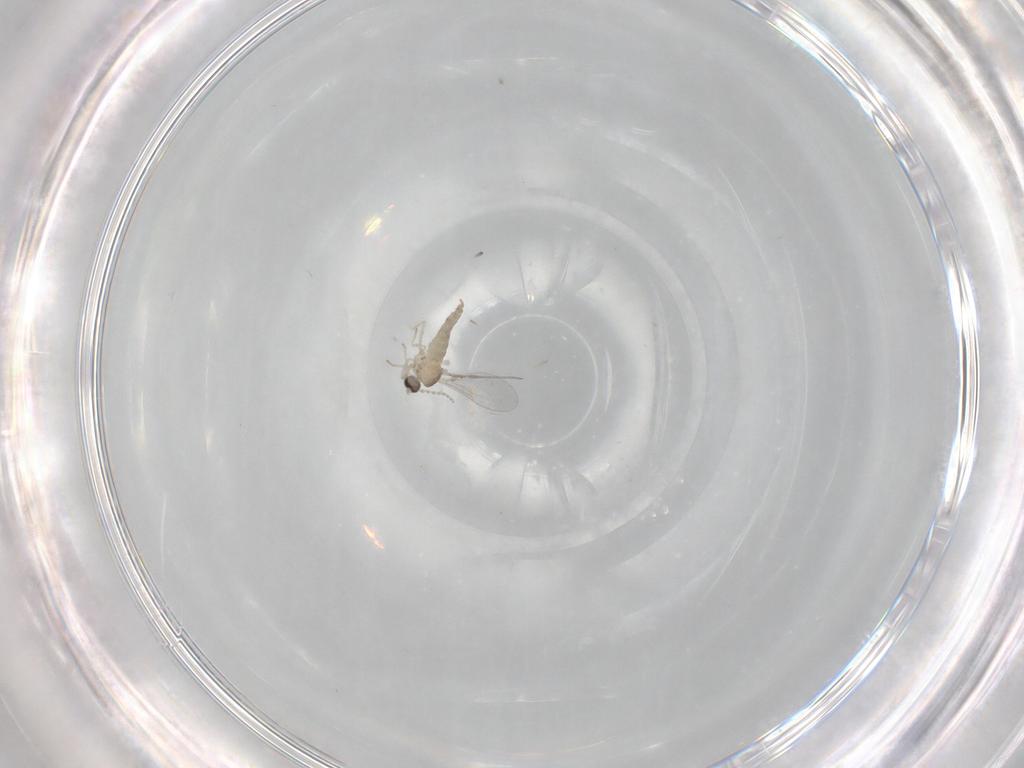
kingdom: Animalia
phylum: Arthropoda
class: Insecta
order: Diptera
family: Cecidomyiidae
